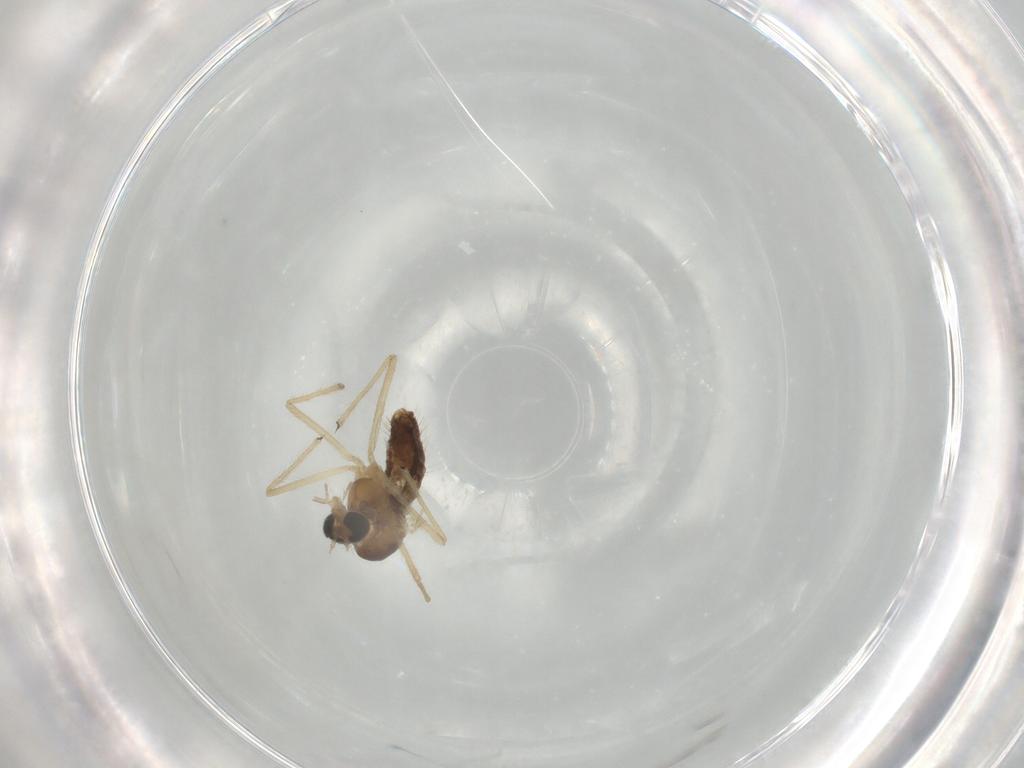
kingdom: Animalia
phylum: Arthropoda
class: Insecta
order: Diptera
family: Chironomidae
